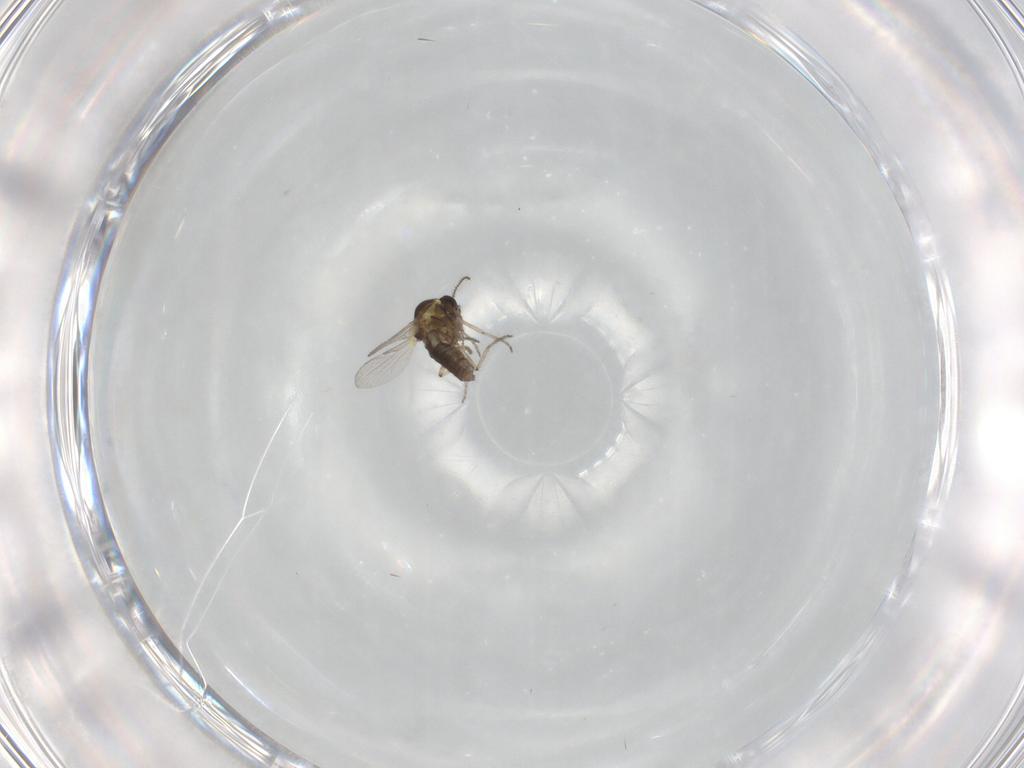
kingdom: Animalia
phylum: Arthropoda
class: Insecta
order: Diptera
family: Ceratopogonidae
